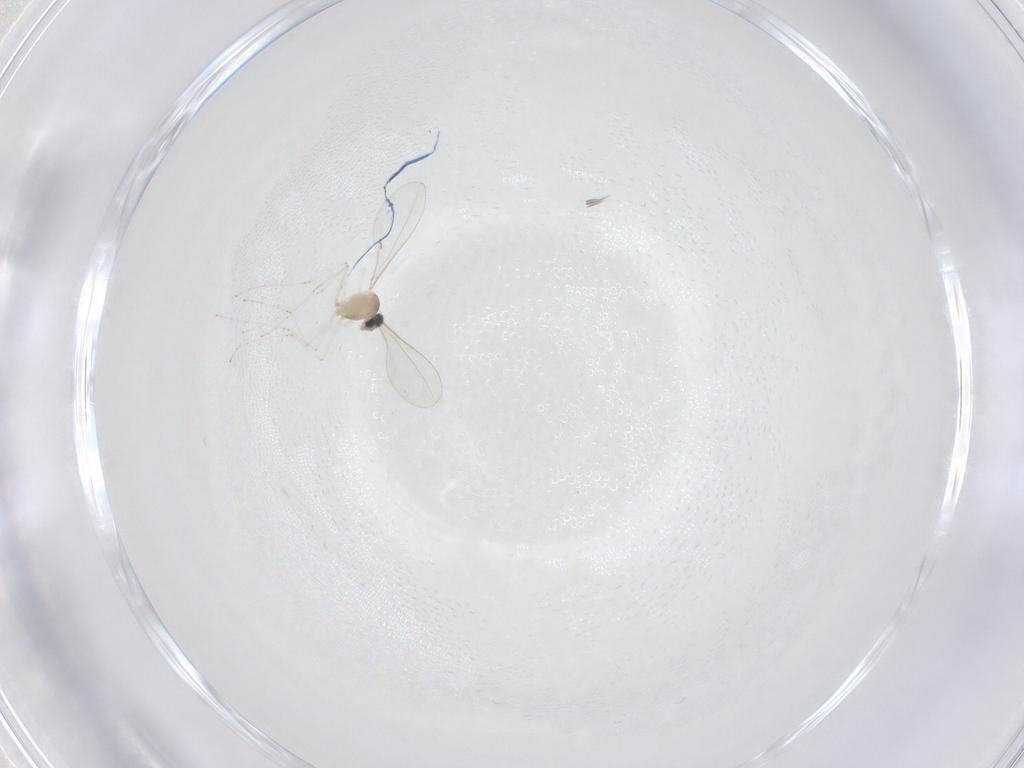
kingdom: Animalia
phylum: Arthropoda
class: Insecta
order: Diptera
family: Cecidomyiidae
